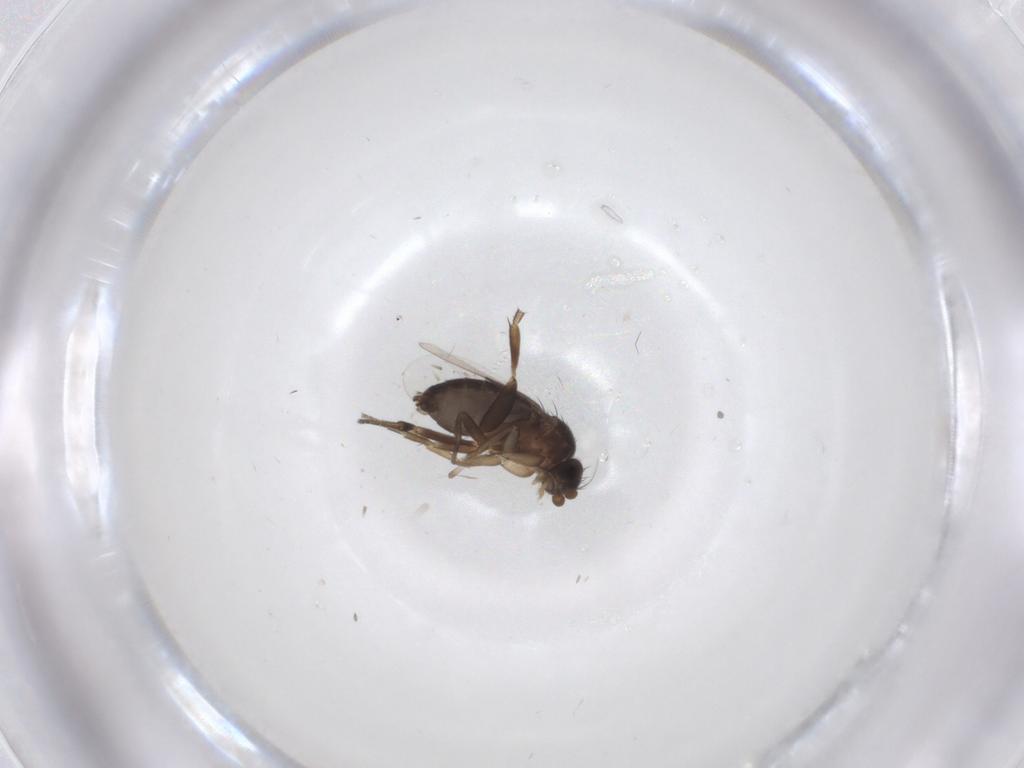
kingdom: Animalia
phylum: Arthropoda
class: Insecta
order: Diptera
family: Phoridae
